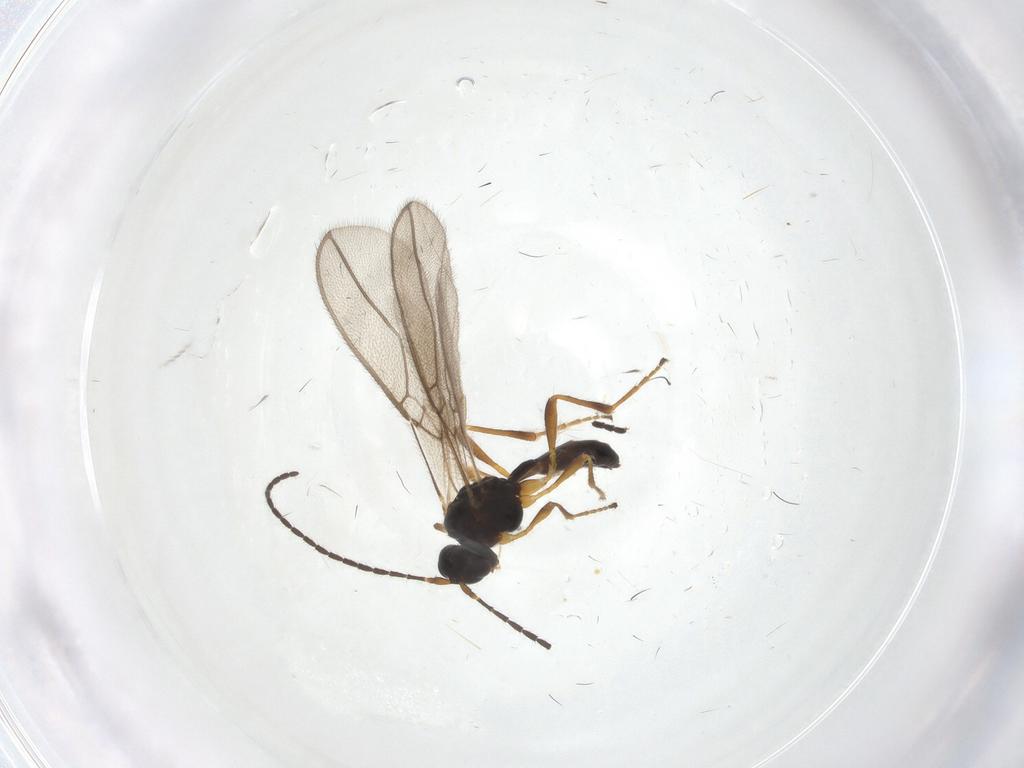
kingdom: Animalia
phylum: Arthropoda
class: Insecta
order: Hymenoptera
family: Braconidae
